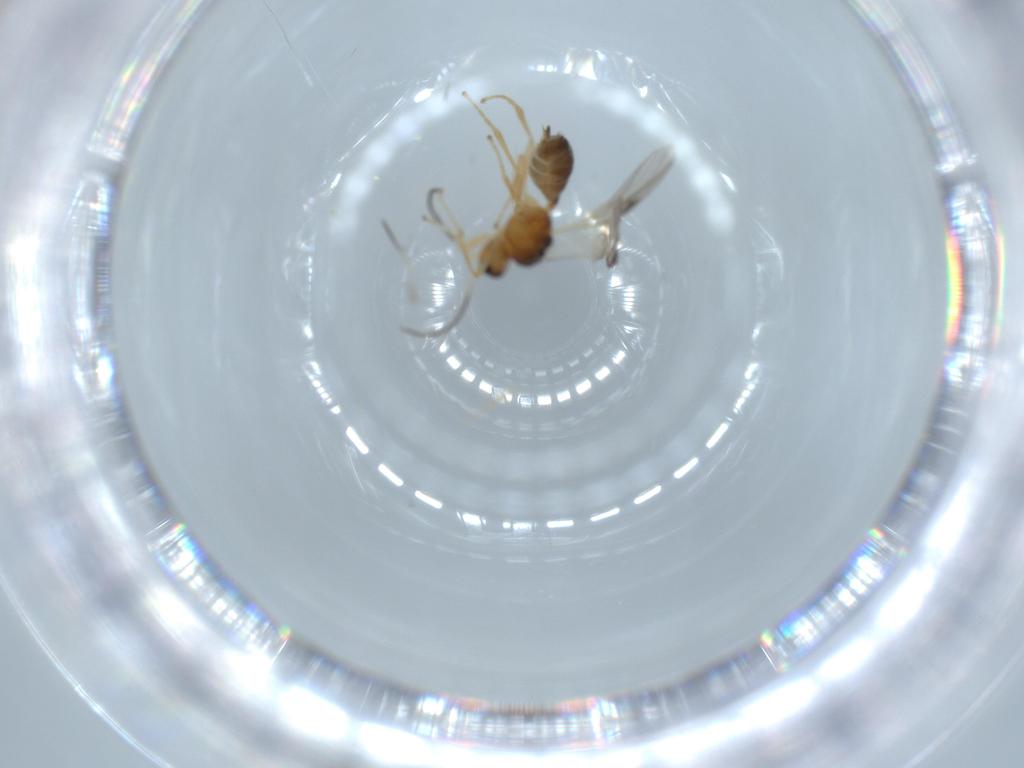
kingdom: Animalia
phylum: Arthropoda
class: Insecta
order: Hymenoptera
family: Braconidae
